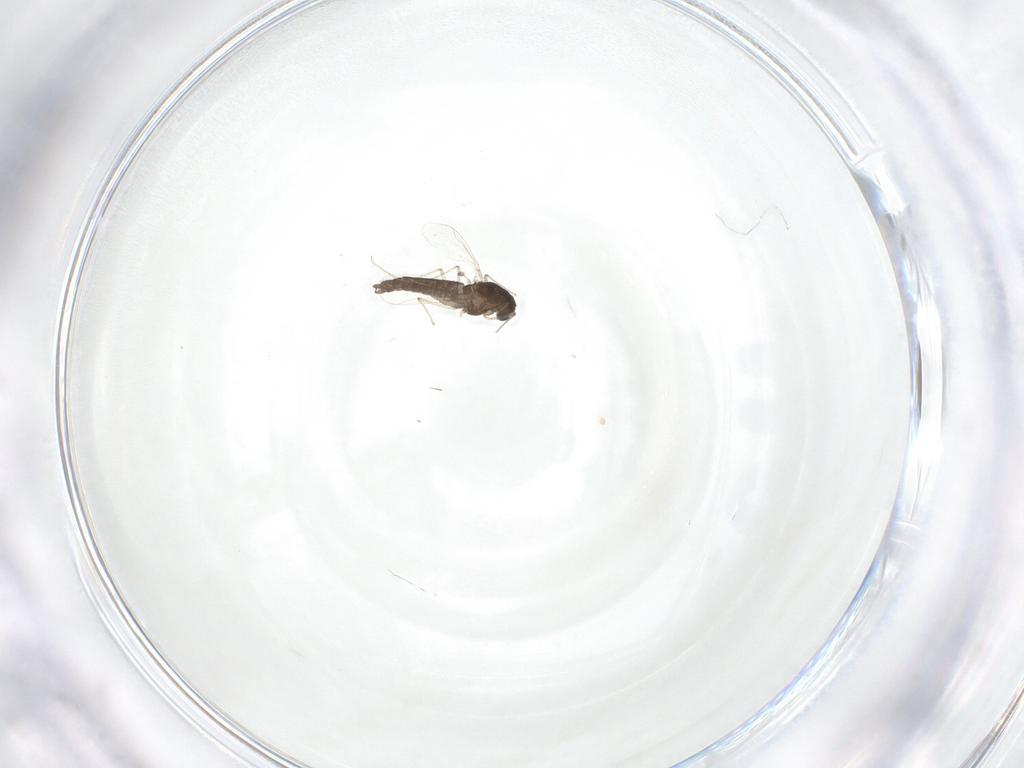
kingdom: Animalia
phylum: Arthropoda
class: Insecta
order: Diptera
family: Chironomidae
